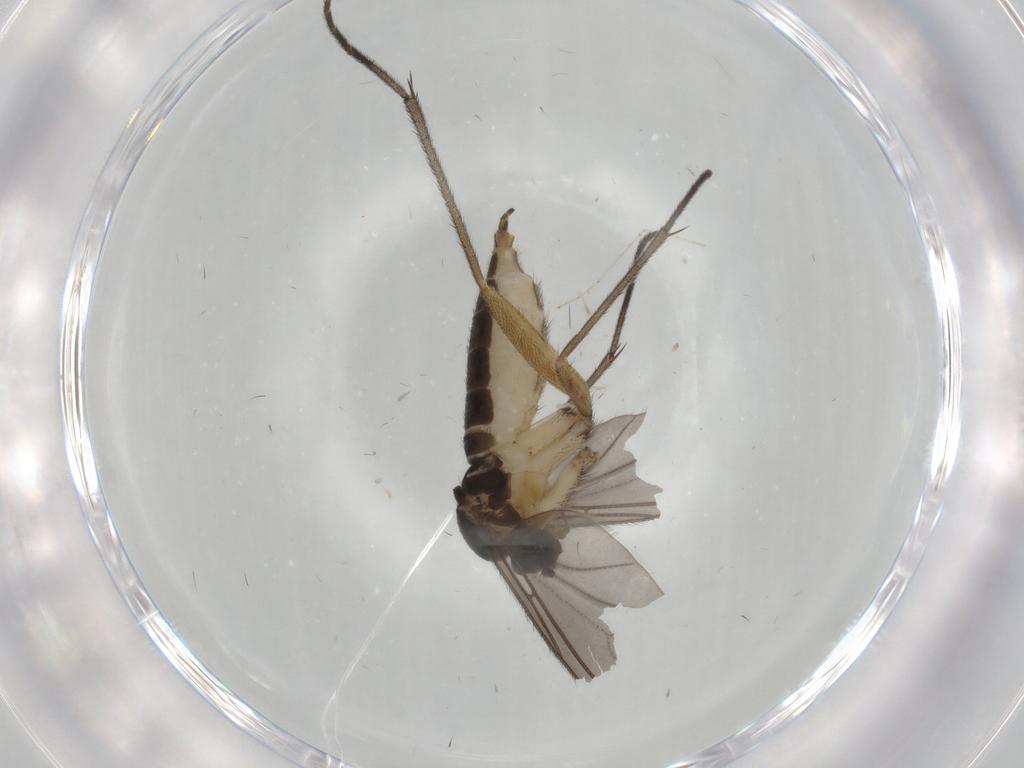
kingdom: Animalia
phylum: Arthropoda
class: Insecta
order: Diptera
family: Sciaridae
